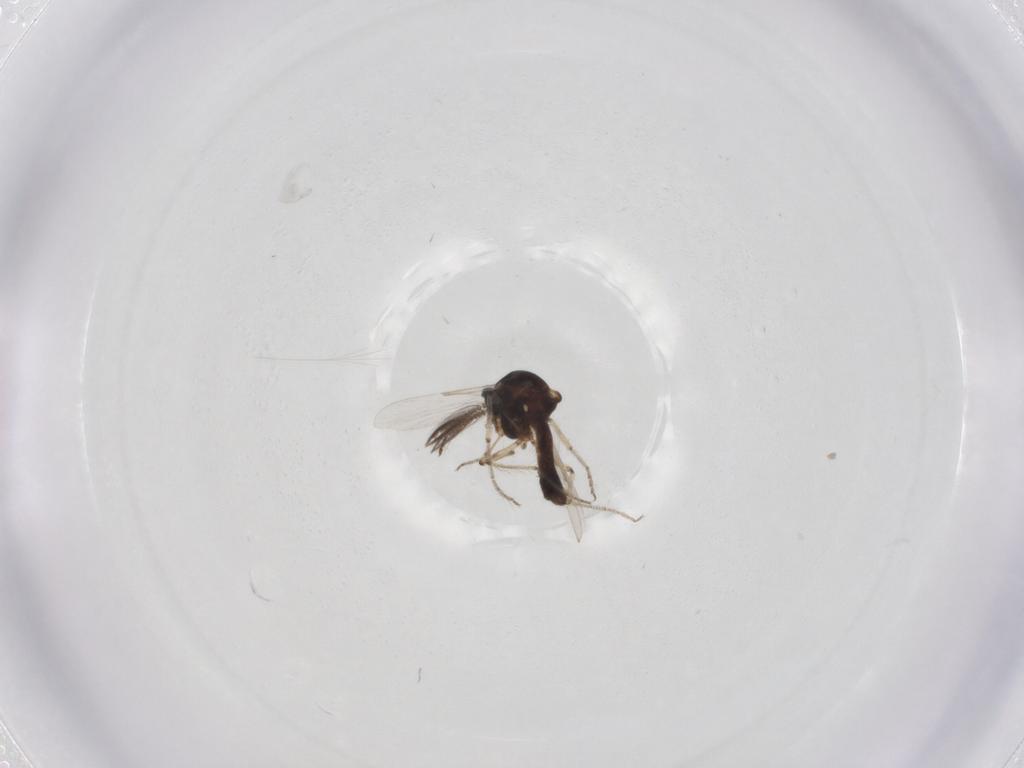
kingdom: Animalia
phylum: Arthropoda
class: Insecta
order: Diptera
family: Ceratopogonidae
